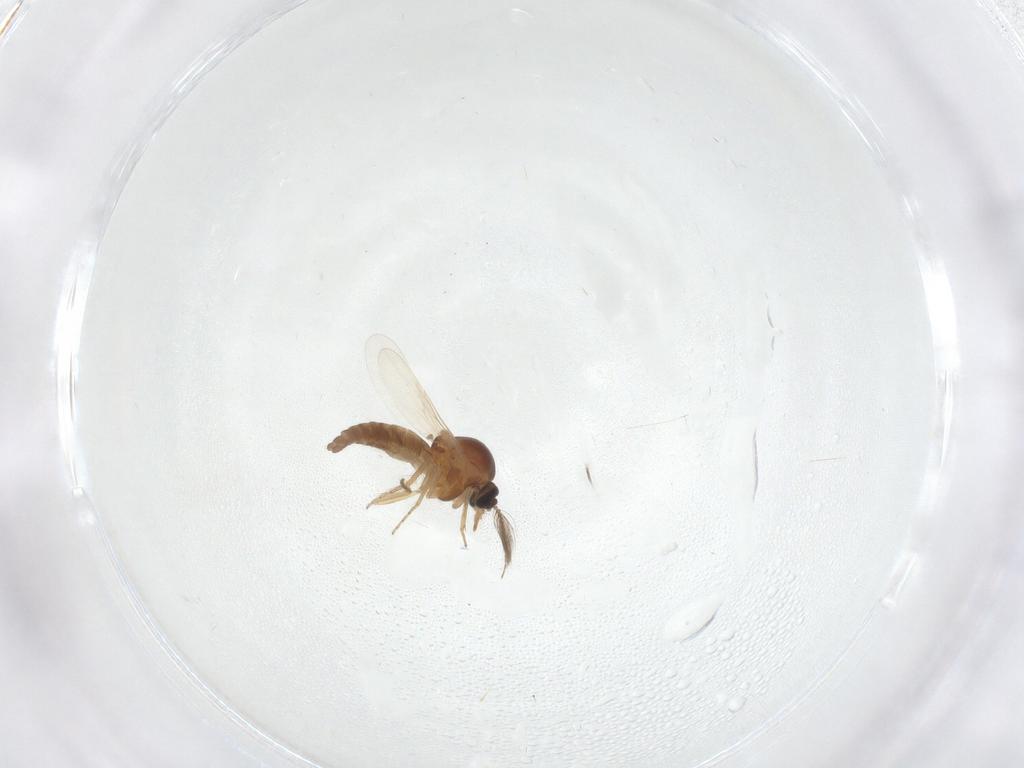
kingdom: Animalia
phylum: Arthropoda
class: Insecta
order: Diptera
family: Ceratopogonidae
